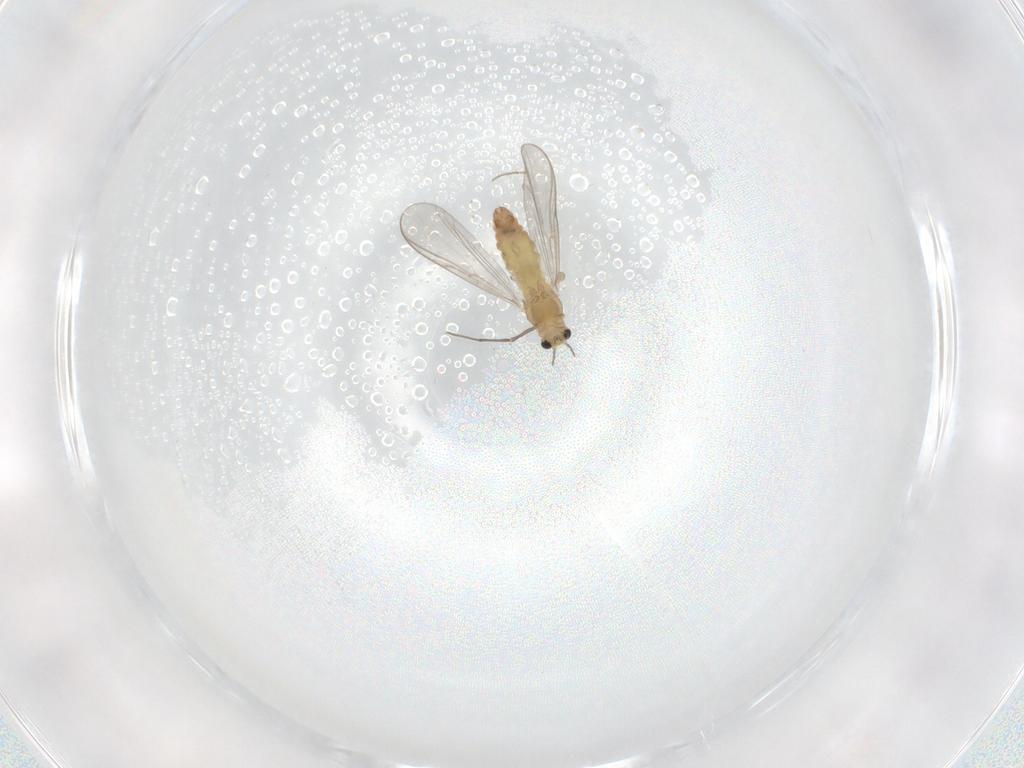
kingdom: Animalia
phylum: Arthropoda
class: Insecta
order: Diptera
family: Chironomidae
